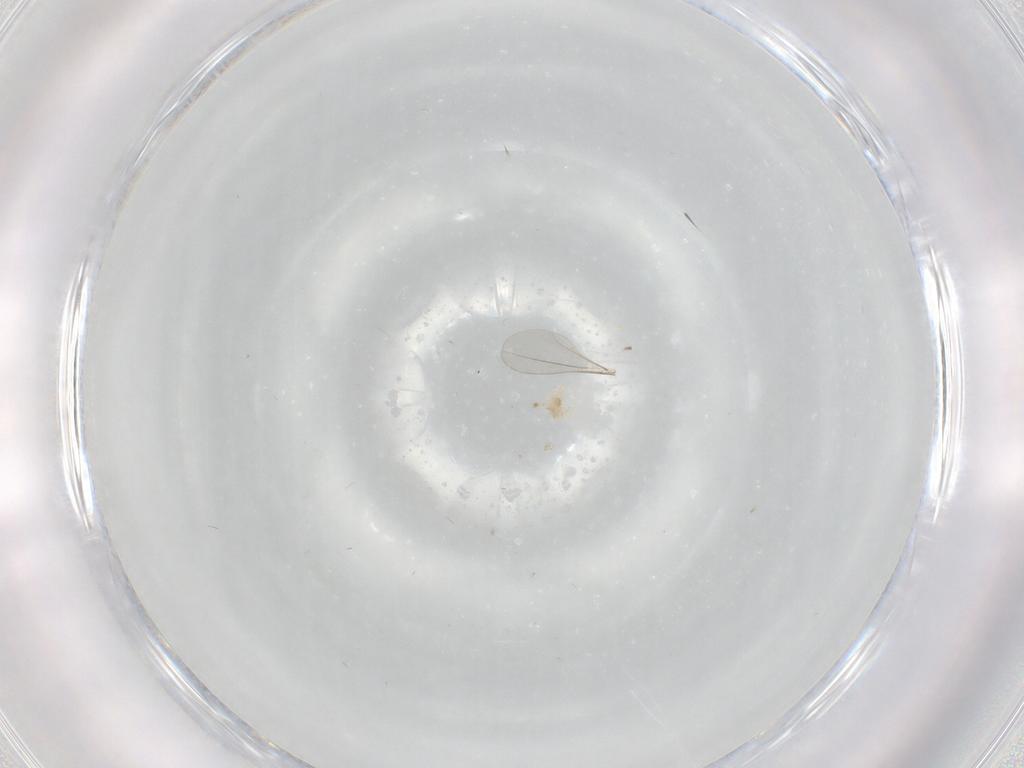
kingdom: Animalia
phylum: Arthropoda
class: Insecta
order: Diptera
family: Cecidomyiidae
